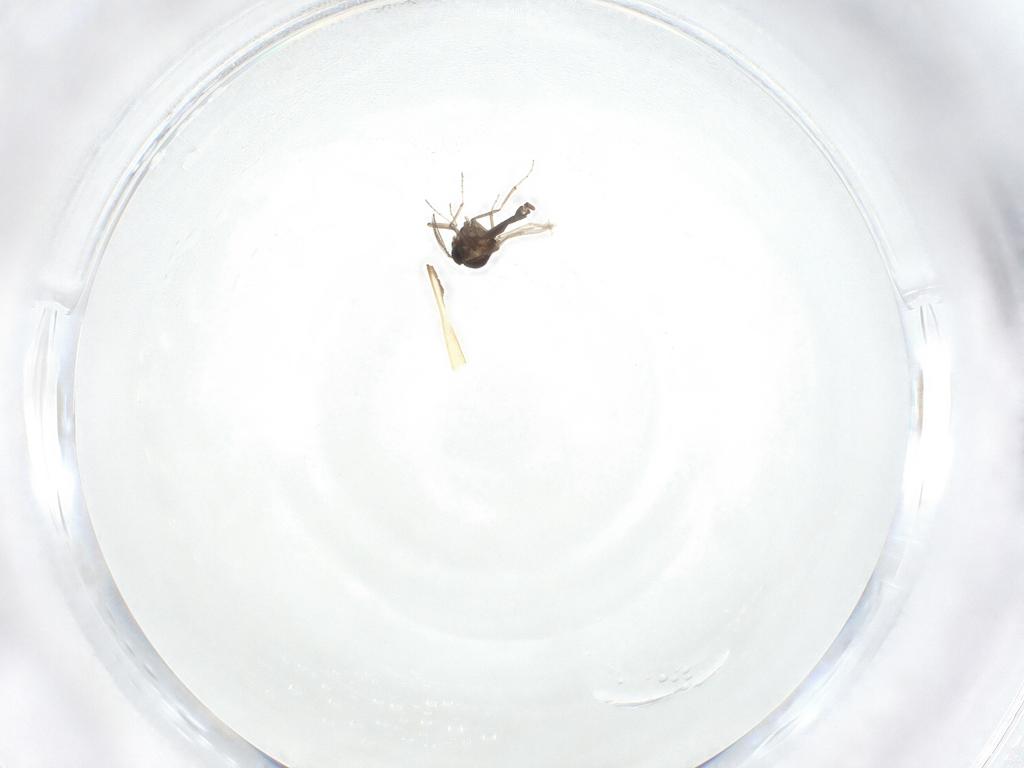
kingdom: Animalia
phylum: Arthropoda
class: Insecta
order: Diptera
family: Ceratopogonidae
